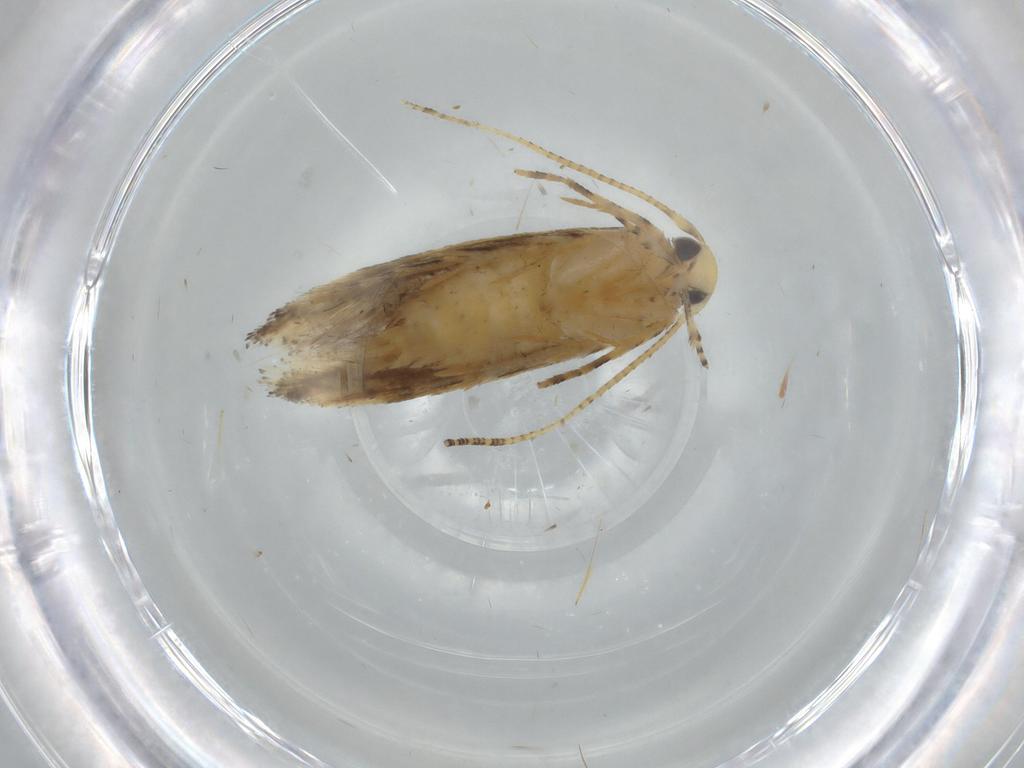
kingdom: Animalia
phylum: Arthropoda
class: Insecta
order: Lepidoptera
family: Gelechiidae
